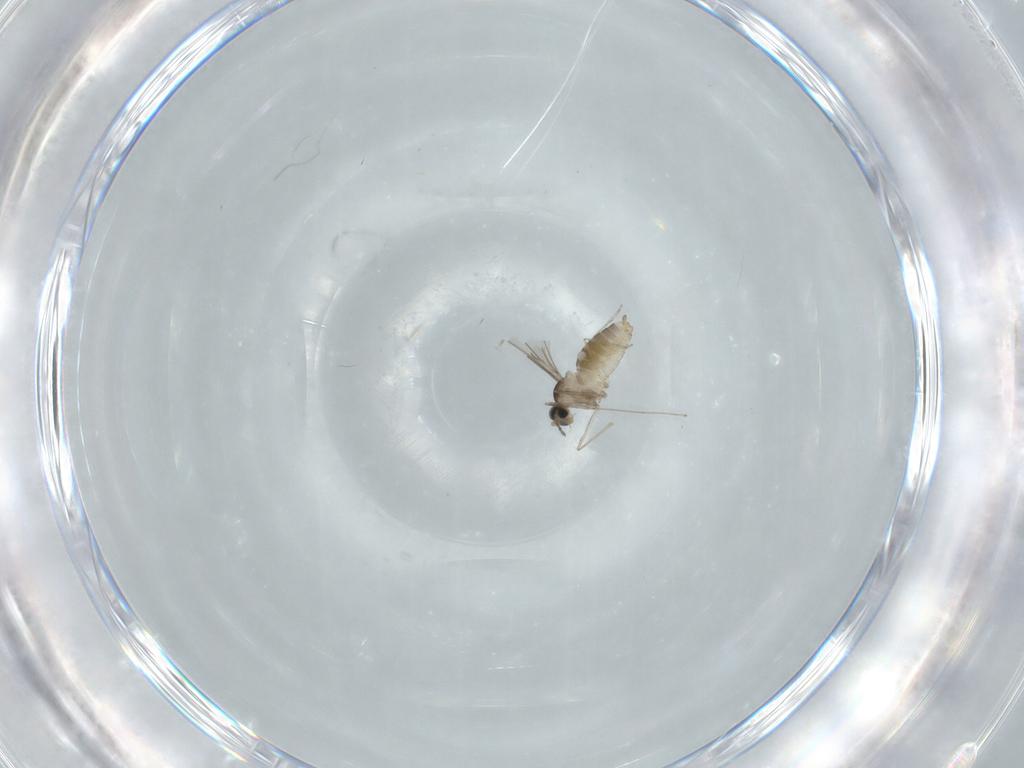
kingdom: Animalia
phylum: Arthropoda
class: Insecta
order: Diptera
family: Cecidomyiidae
